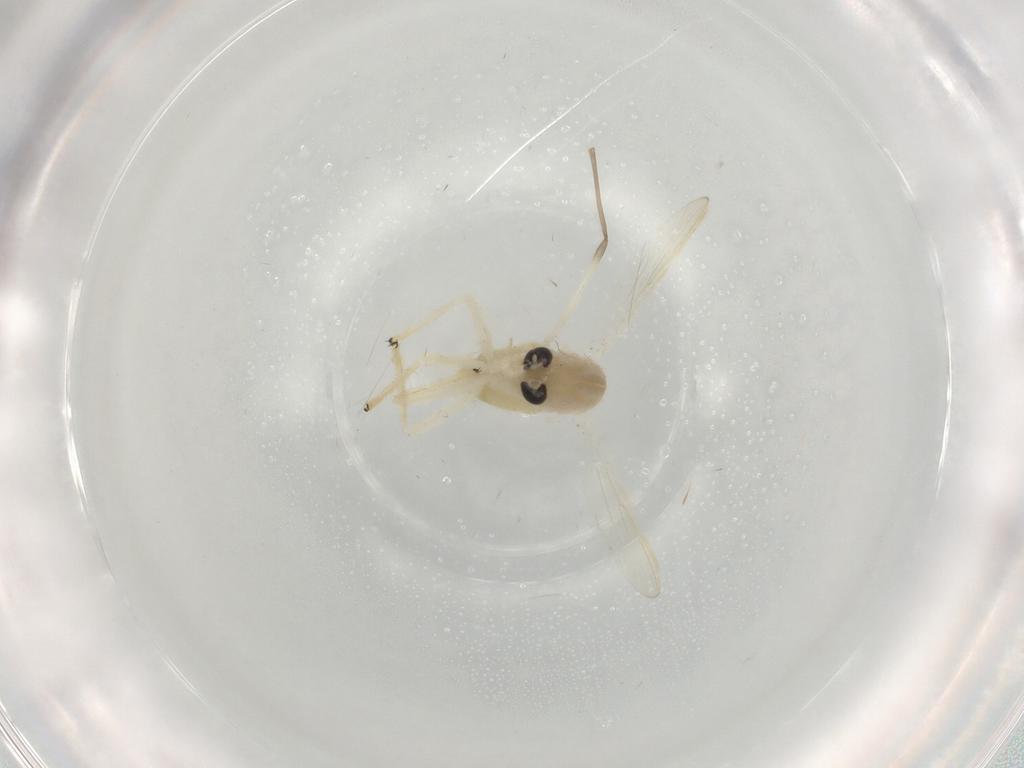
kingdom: Animalia
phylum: Arthropoda
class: Insecta
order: Diptera
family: Chironomidae
